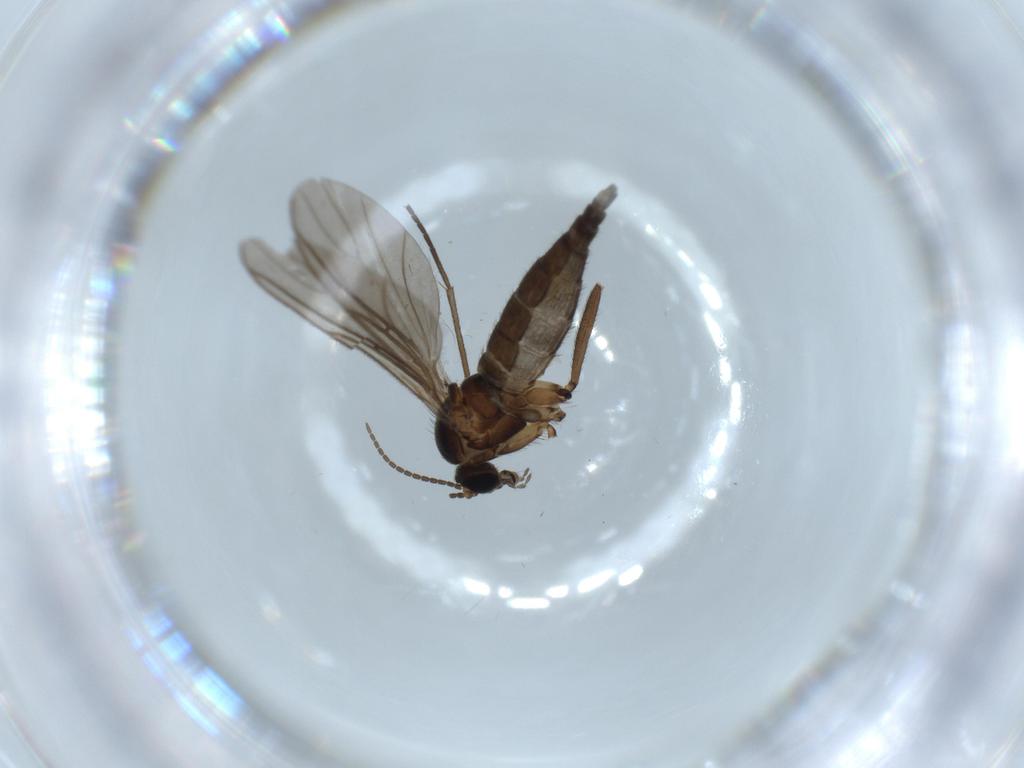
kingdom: Animalia
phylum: Arthropoda
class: Insecta
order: Diptera
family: Sciaridae
